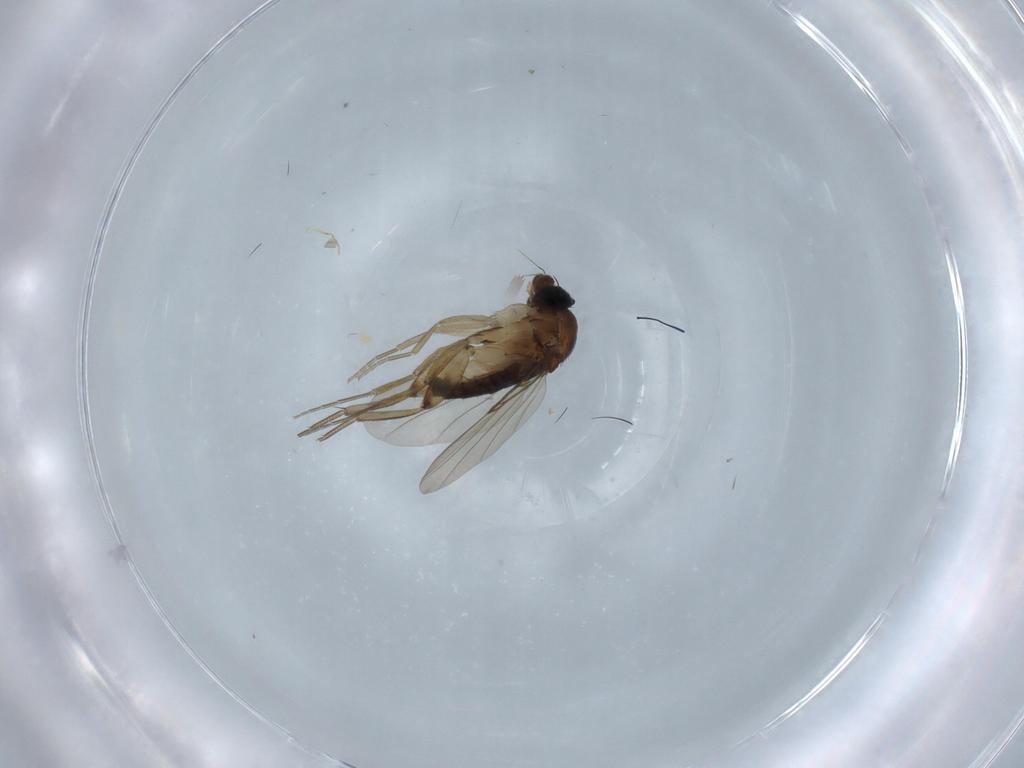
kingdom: Animalia
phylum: Arthropoda
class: Insecta
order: Diptera
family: Phoridae
